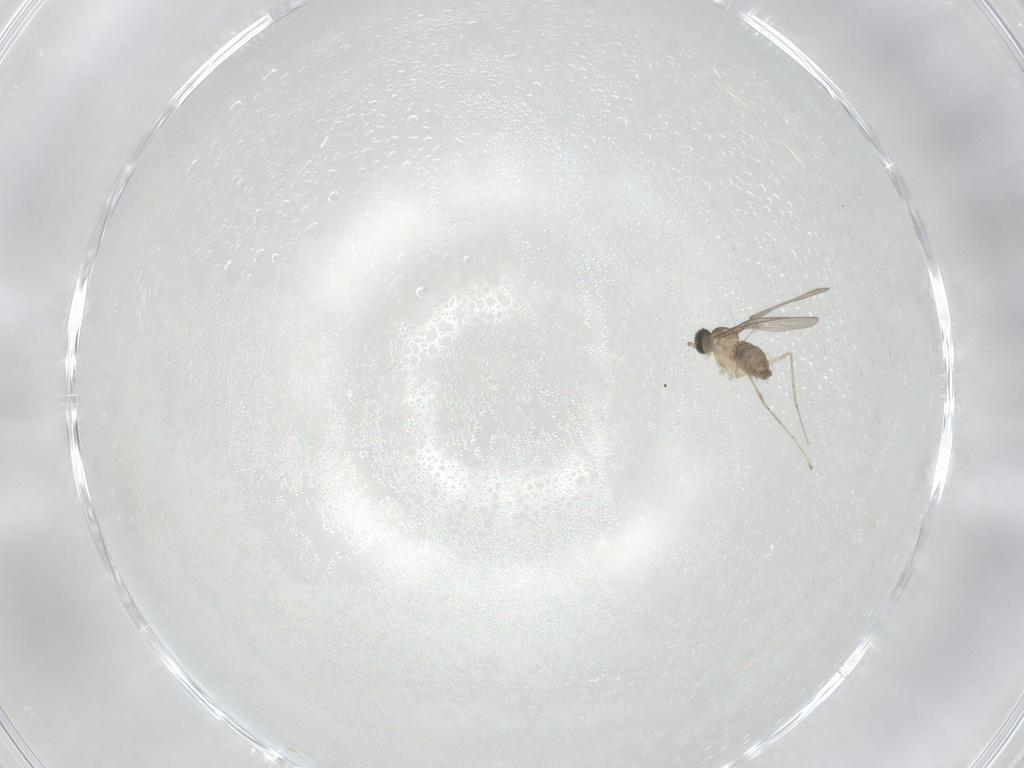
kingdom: Animalia
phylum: Arthropoda
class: Insecta
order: Diptera
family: Cecidomyiidae
